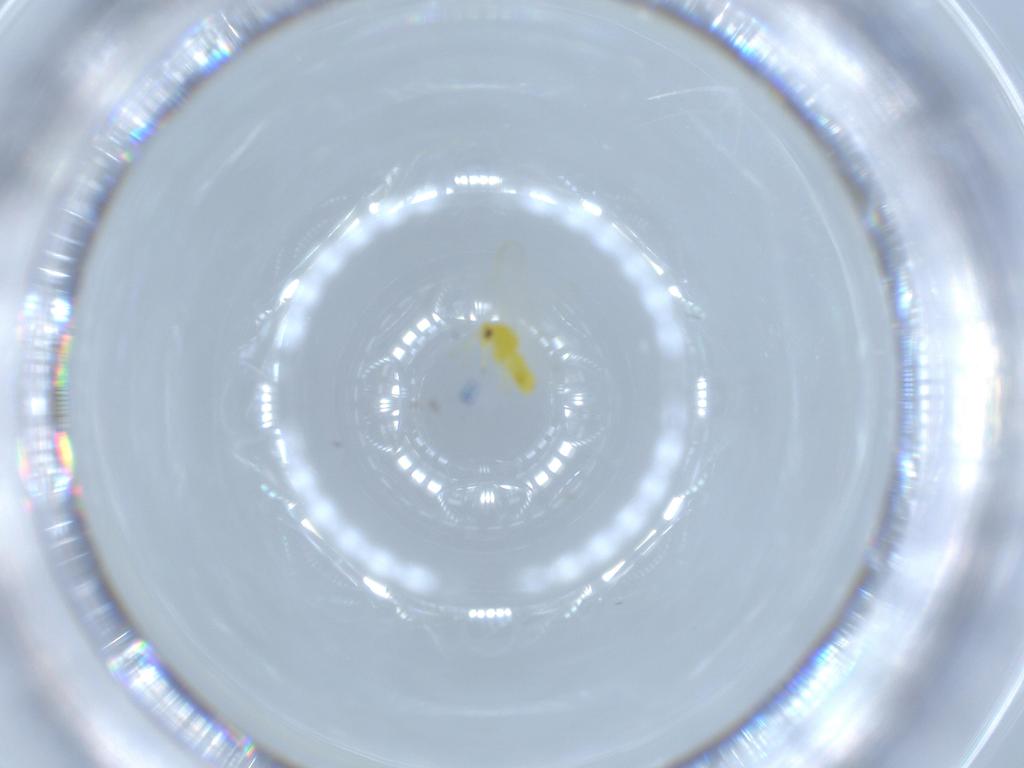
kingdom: Animalia
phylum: Arthropoda
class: Insecta
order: Hemiptera
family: Aleyrodidae
